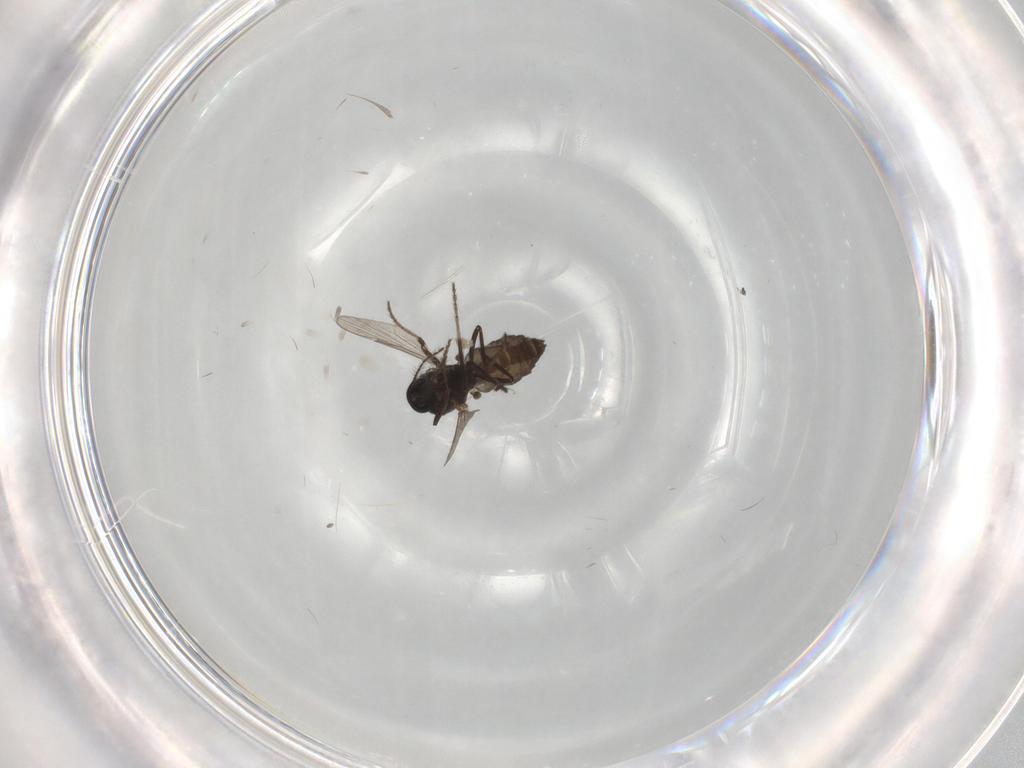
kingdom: Animalia
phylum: Arthropoda
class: Insecta
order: Diptera
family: Ceratopogonidae
